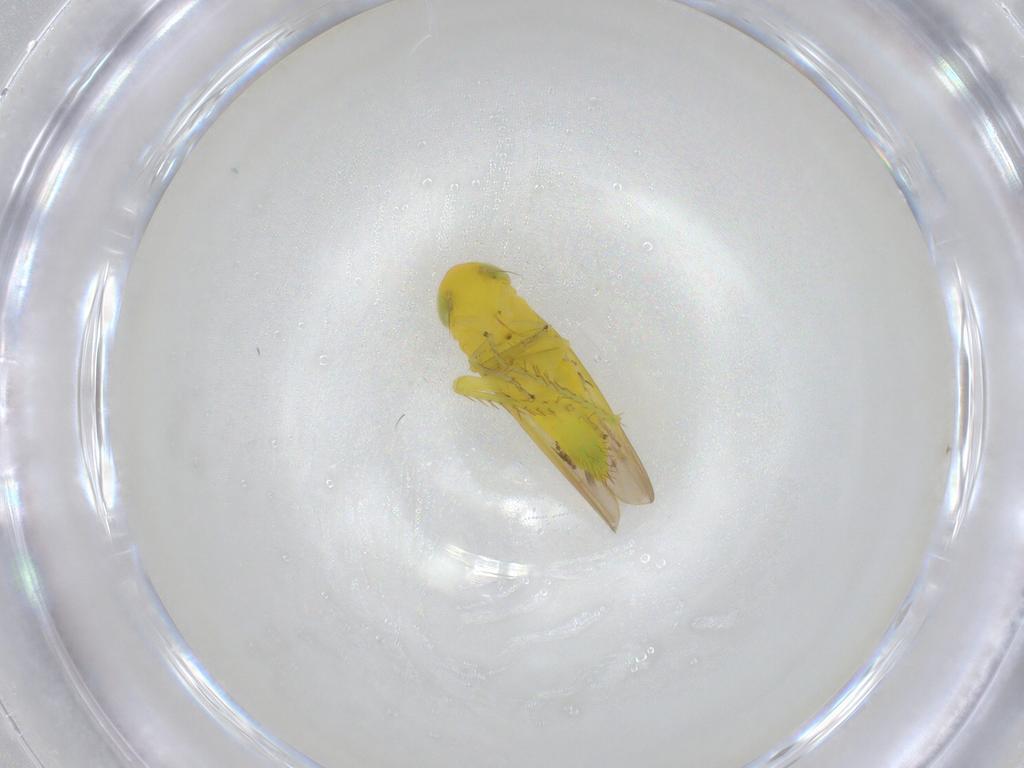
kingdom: Animalia
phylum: Arthropoda
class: Insecta
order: Hemiptera
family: Cicadellidae
